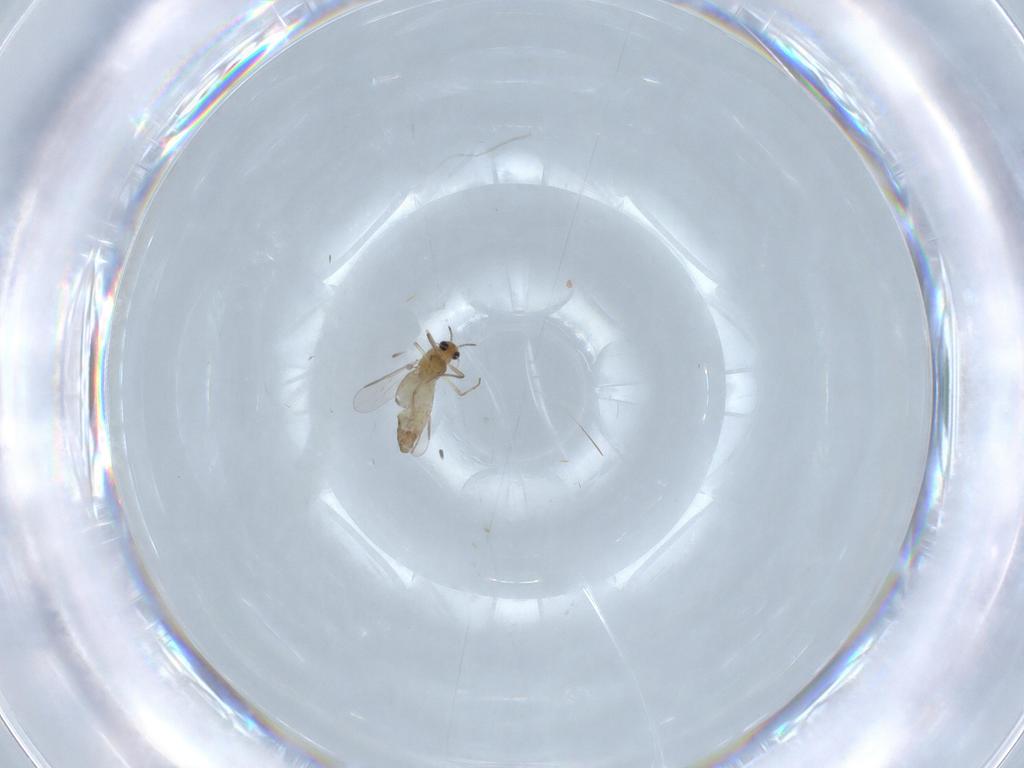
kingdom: Animalia
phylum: Arthropoda
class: Insecta
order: Diptera
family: Chironomidae
